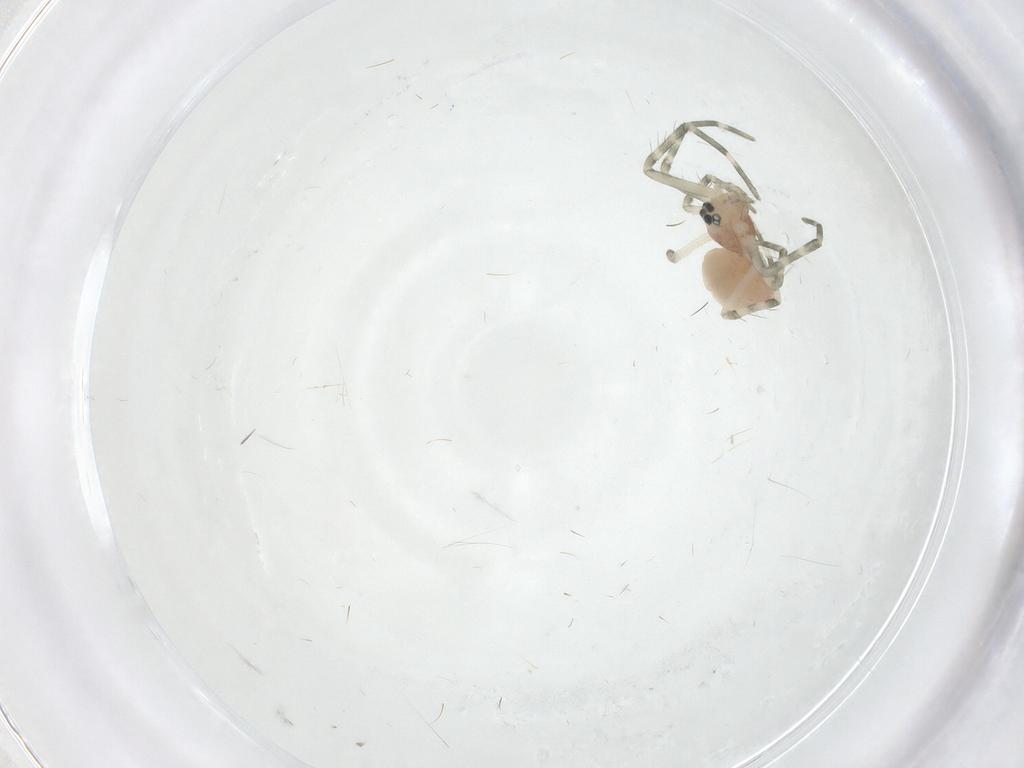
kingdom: Animalia
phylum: Arthropoda
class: Arachnida
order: Araneae
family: Linyphiidae
